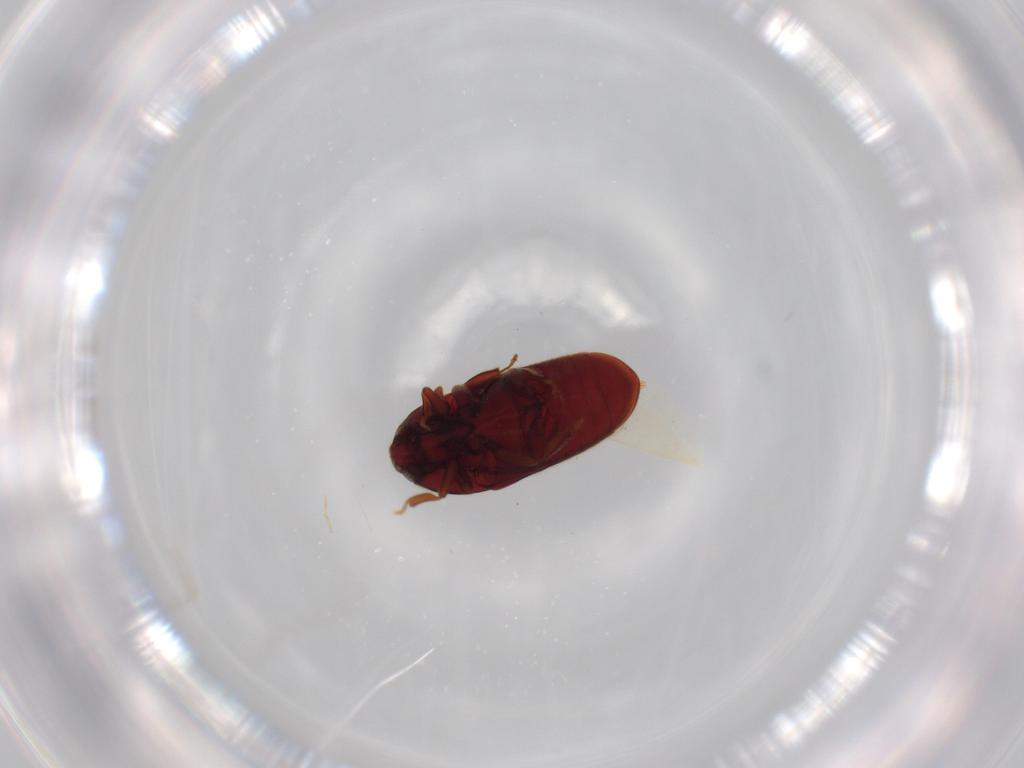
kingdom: Animalia
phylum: Arthropoda
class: Insecta
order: Coleoptera
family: Throscidae
